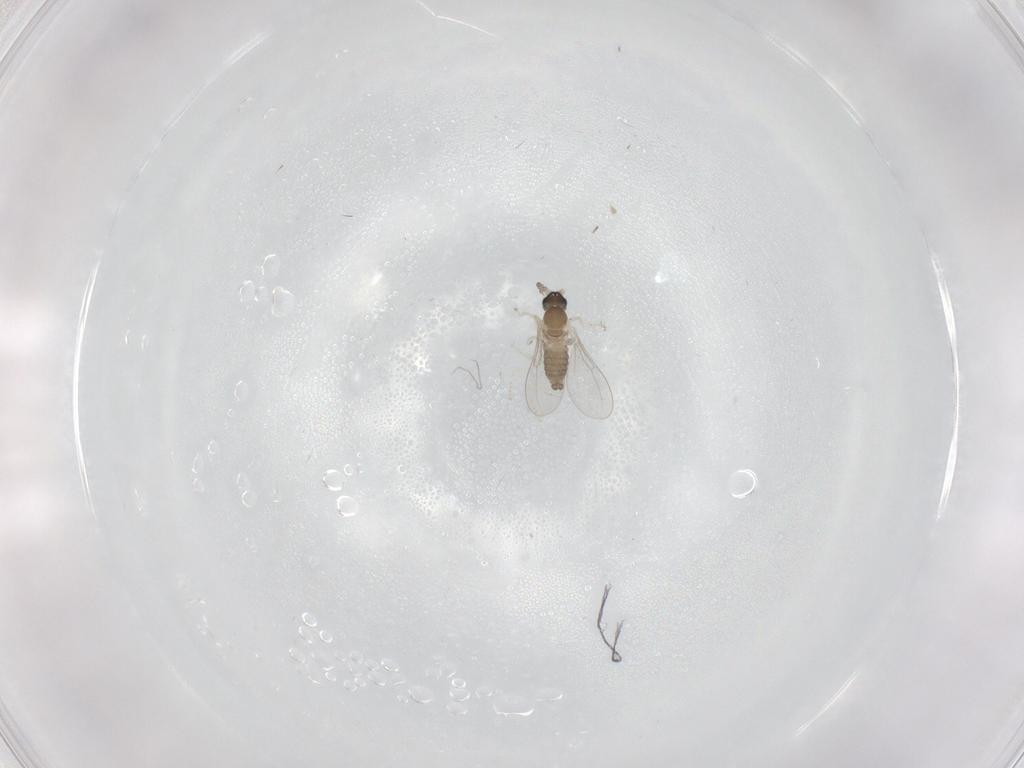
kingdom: Animalia
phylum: Arthropoda
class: Insecta
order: Diptera
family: Cecidomyiidae
